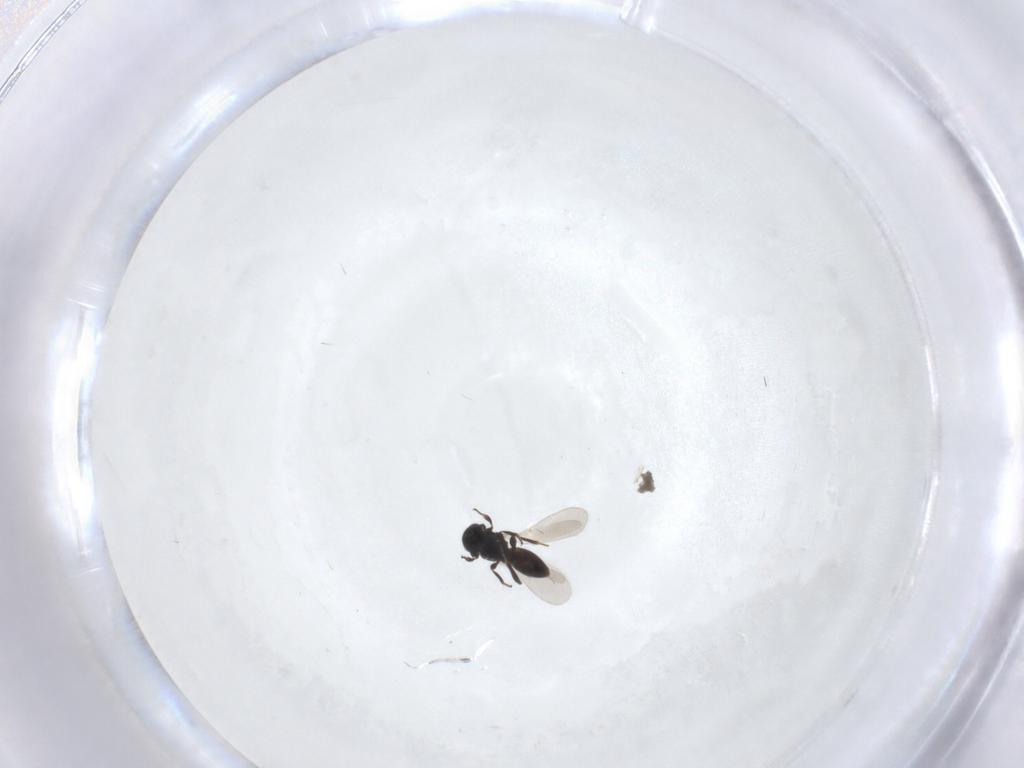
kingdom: Animalia
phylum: Arthropoda
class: Insecta
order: Hymenoptera
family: Platygastridae
